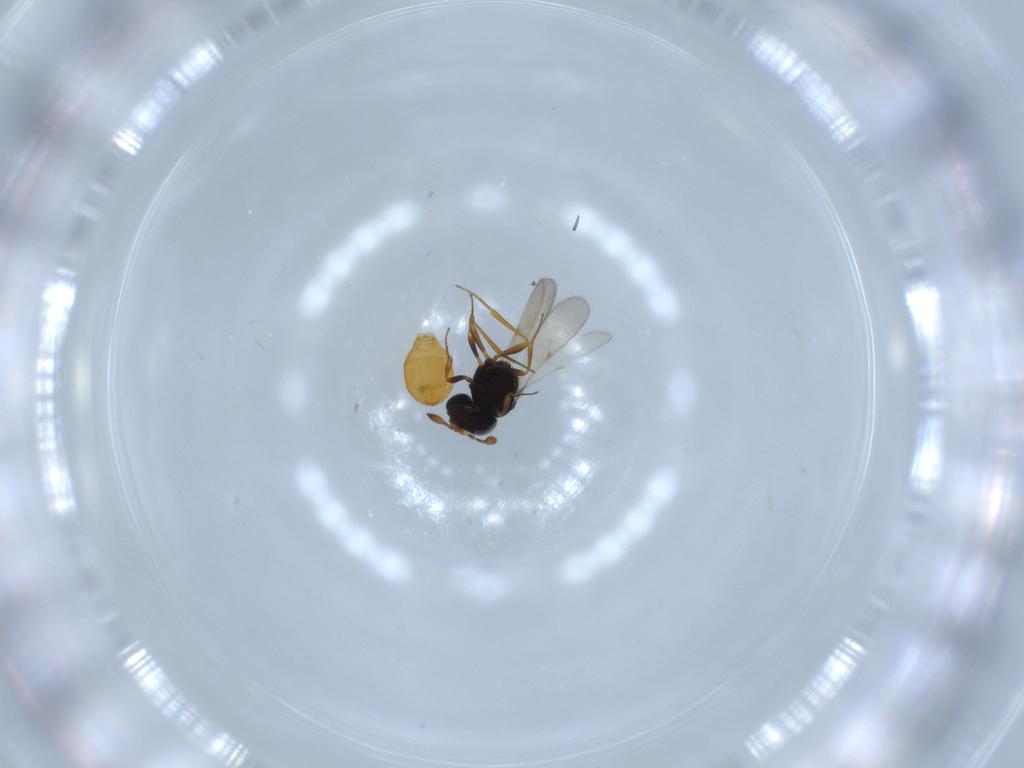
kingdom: Animalia
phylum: Arthropoda
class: Insecta
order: Hymenoptera
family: Scelionidae
